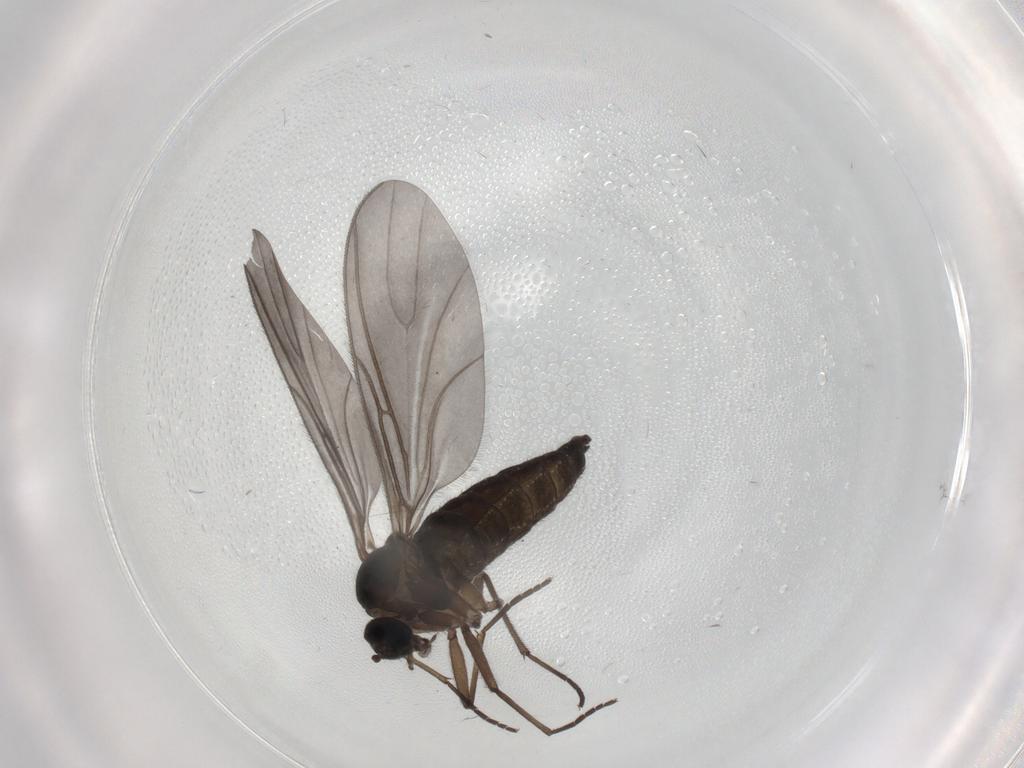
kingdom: Animalia
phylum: Arthropoda
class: Insecta
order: Diptera
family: Phoridae
